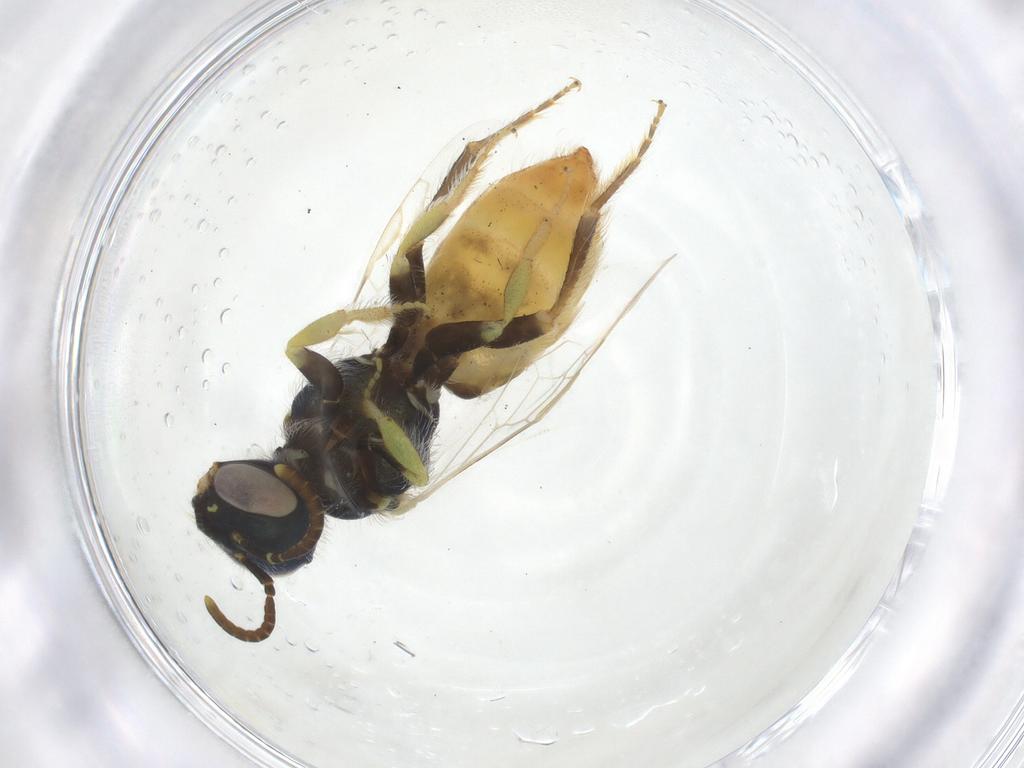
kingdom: Animalia
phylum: Arthropoda
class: Insecta
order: Hymenoptera
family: Andrenidae
